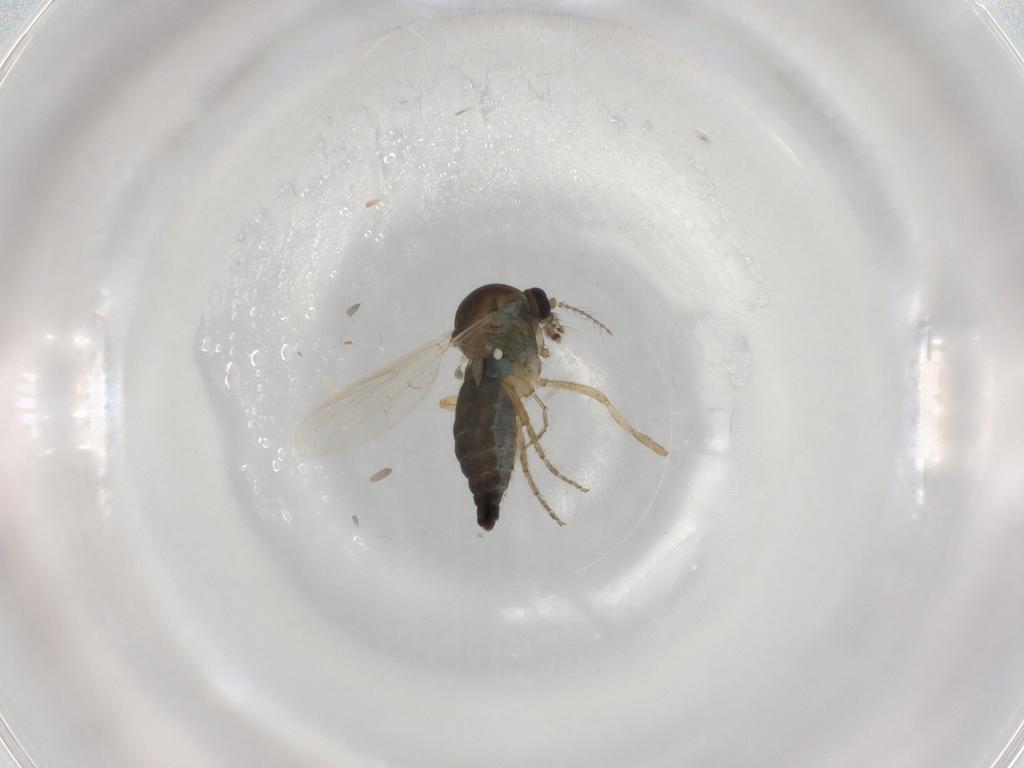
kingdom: Animalia
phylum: Arthropoda
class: Insecta
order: Diptera
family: Ceratopogonidae
